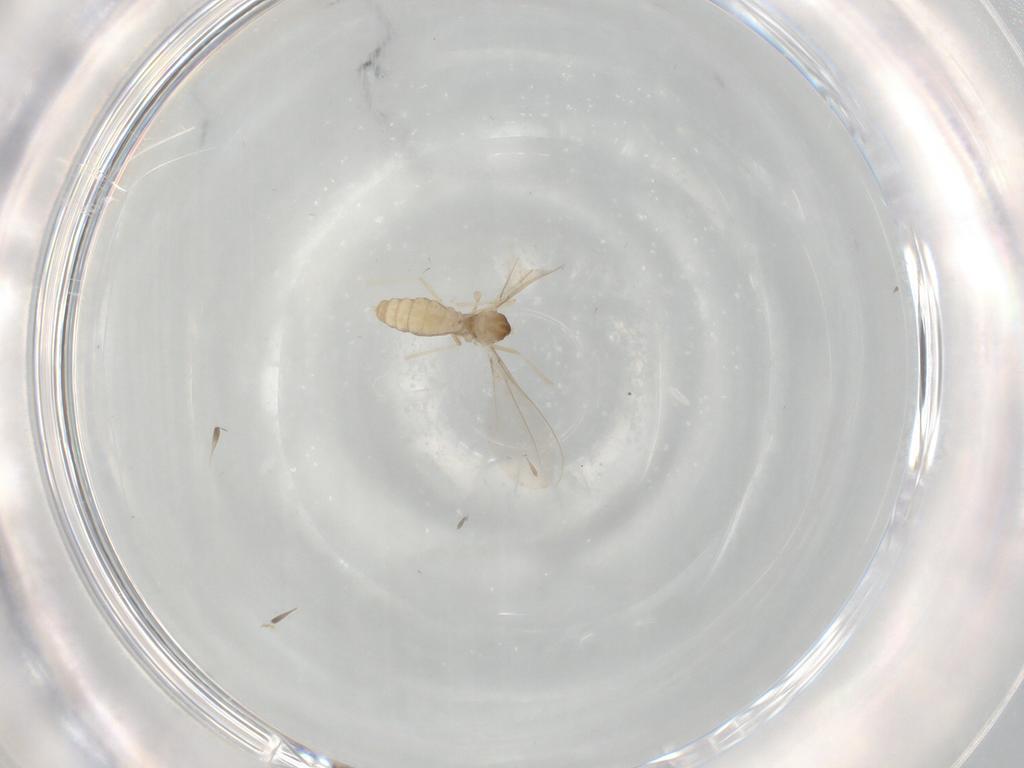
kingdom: Animalia
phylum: Arthropoda
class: Insecta
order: Diptera
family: Cecidomyiidae
